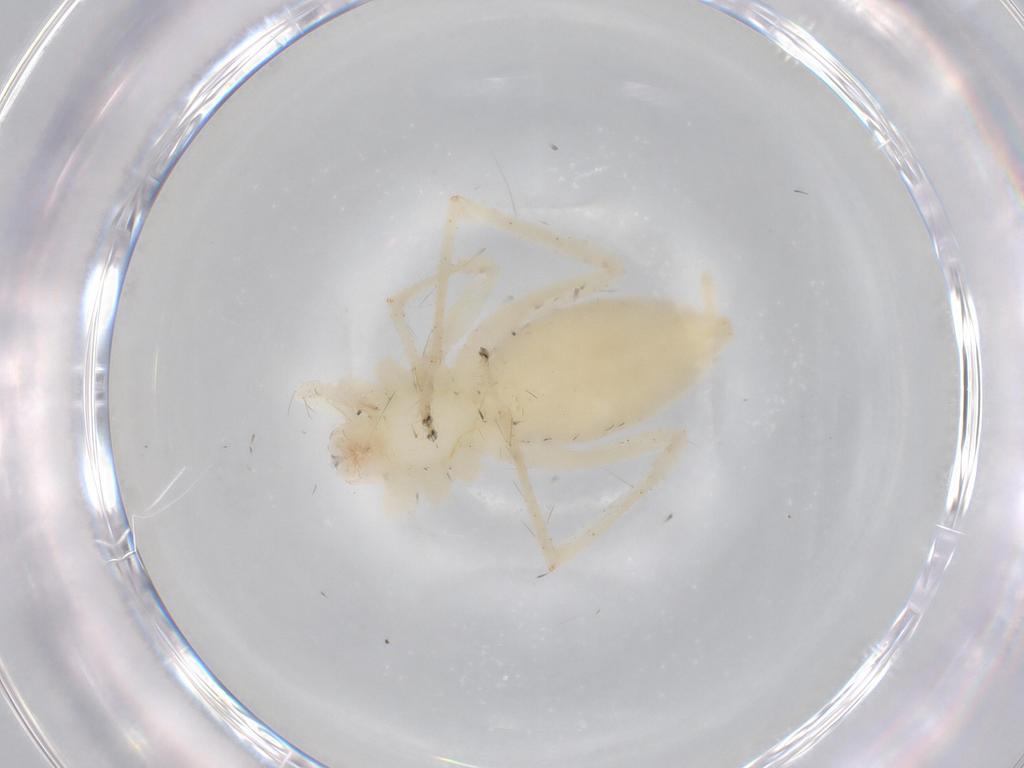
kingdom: Animalia
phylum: Arthropoda
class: Arachnida
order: Araneae
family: Anyphaenidae
